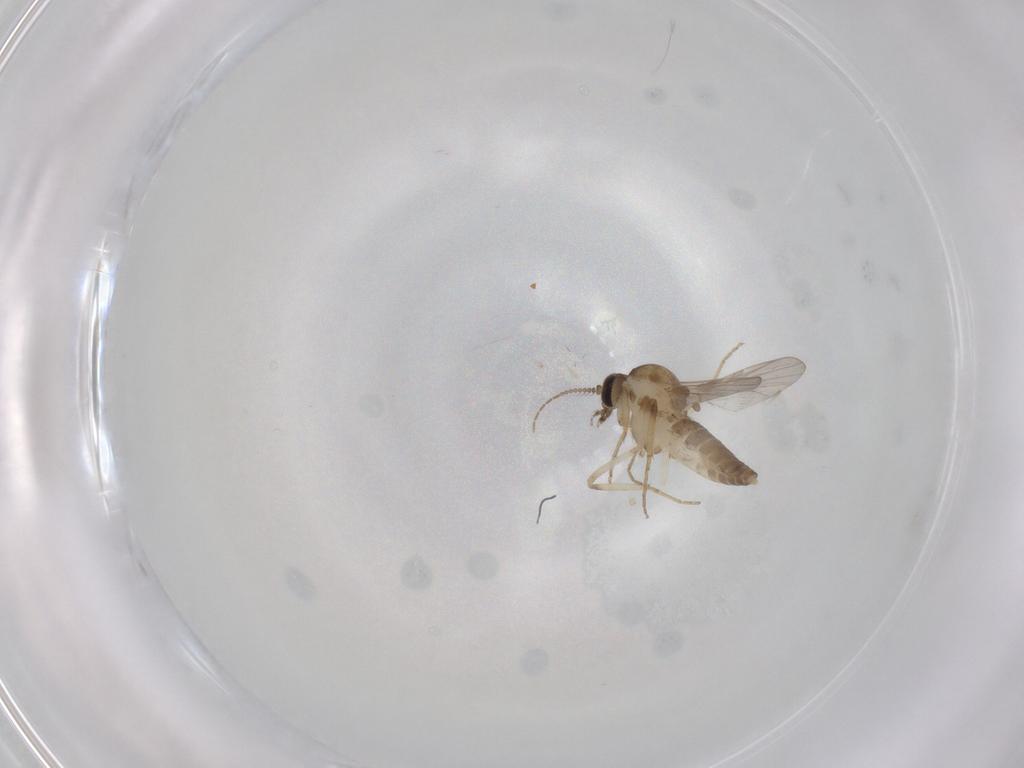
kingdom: Animalia
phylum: Arthropoda
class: Insecta
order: Diptera
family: Ceratopogonidae
